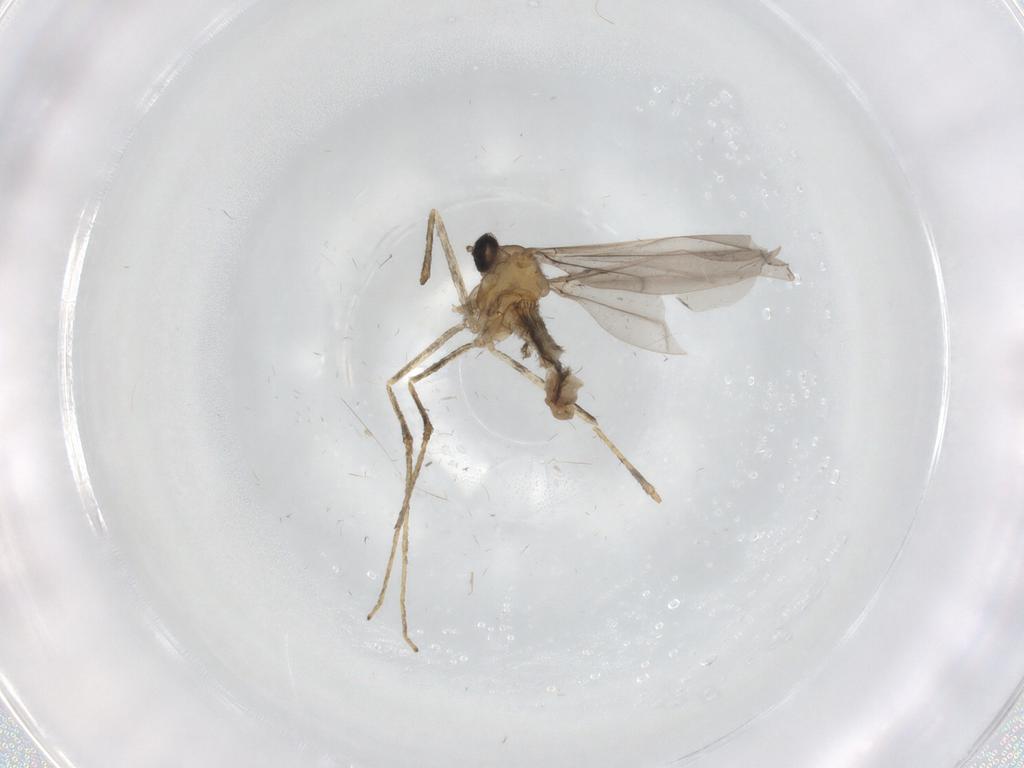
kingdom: Animalia
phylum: Arthropoda
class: Insecta
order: Diptera
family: Cecidomyiidae
